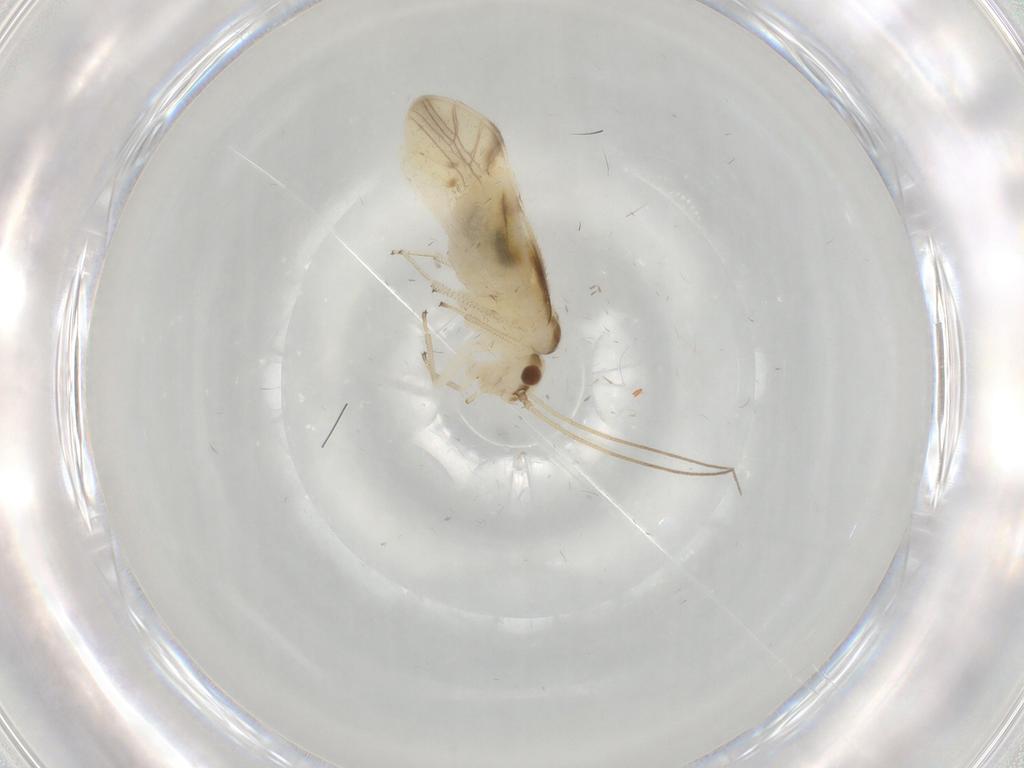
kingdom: Animalia
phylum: Arthropoda
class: Insecta
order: Psocodea
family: Caeciliusidae
